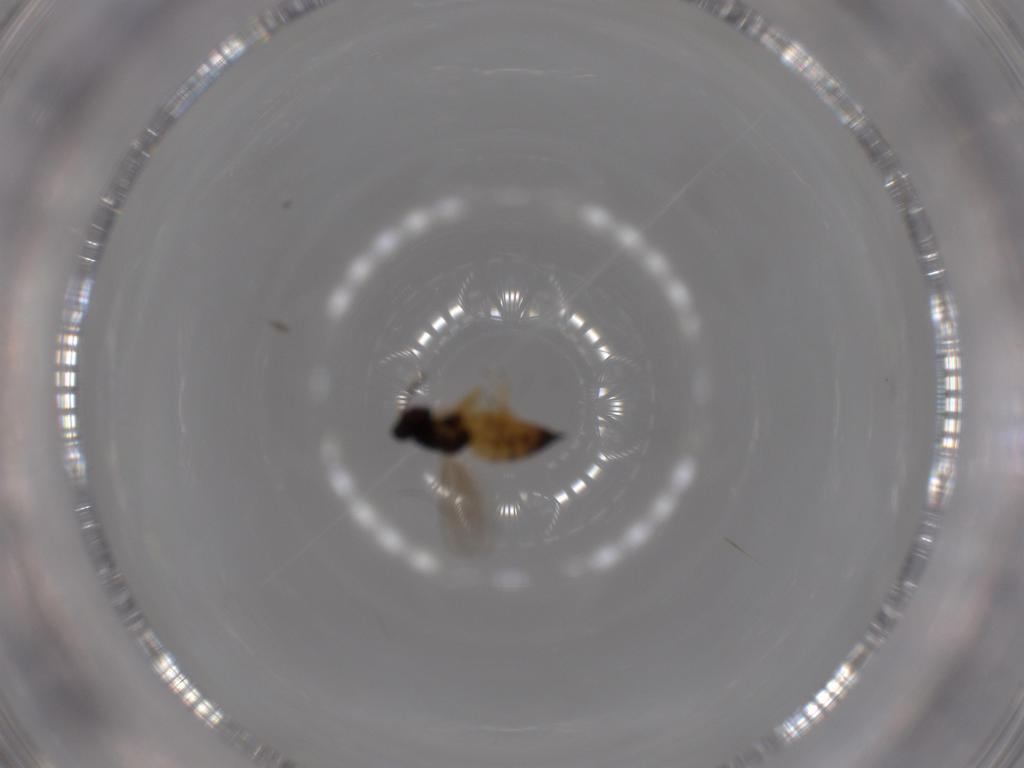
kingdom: Animalia
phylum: Arthropoda
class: Insecta
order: Hymenoptera
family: Eulophidae
